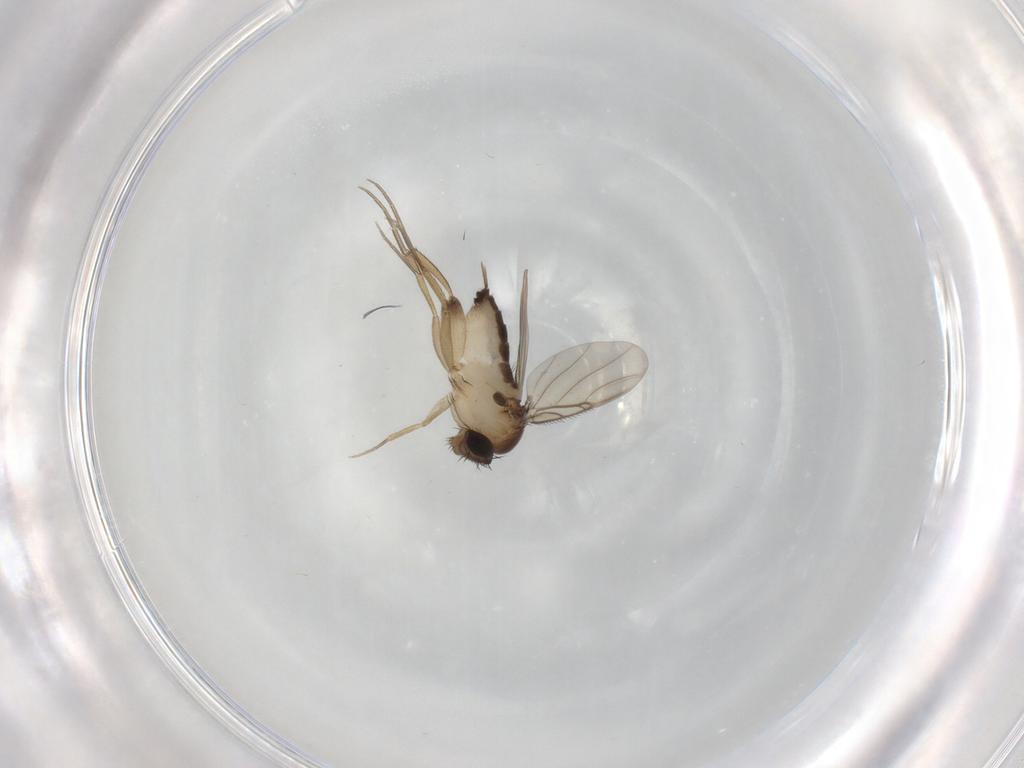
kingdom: Animalia
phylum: Arthropoda
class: Insecta
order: Diptera
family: Phoridae
